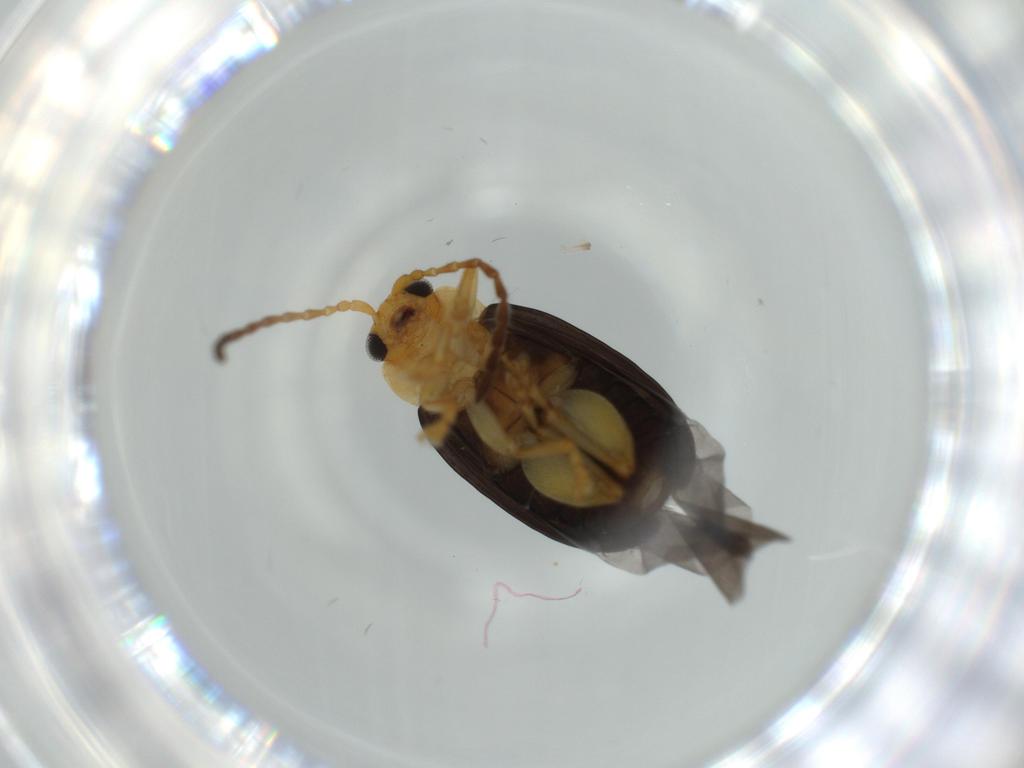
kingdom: Animalia
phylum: Arthropoda
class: Insecta
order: Coleoptera
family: Chrysomelidae
